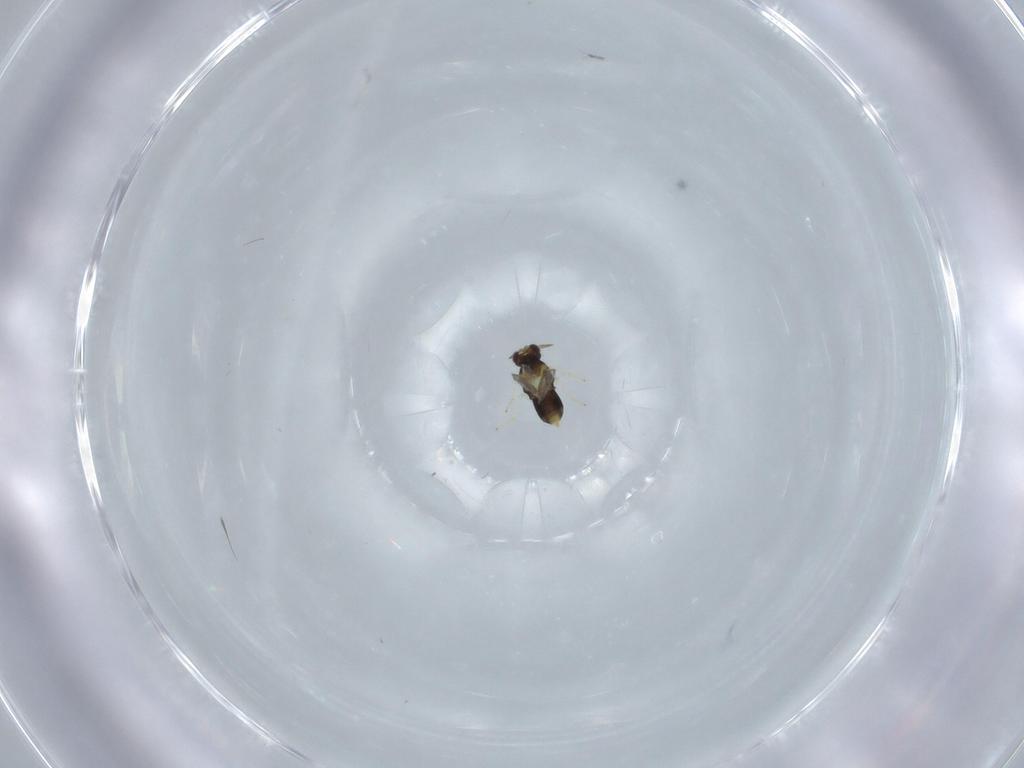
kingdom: Animalia
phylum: Arthropoda
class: Insecta
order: Hymenoptera
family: Aphelinidae
